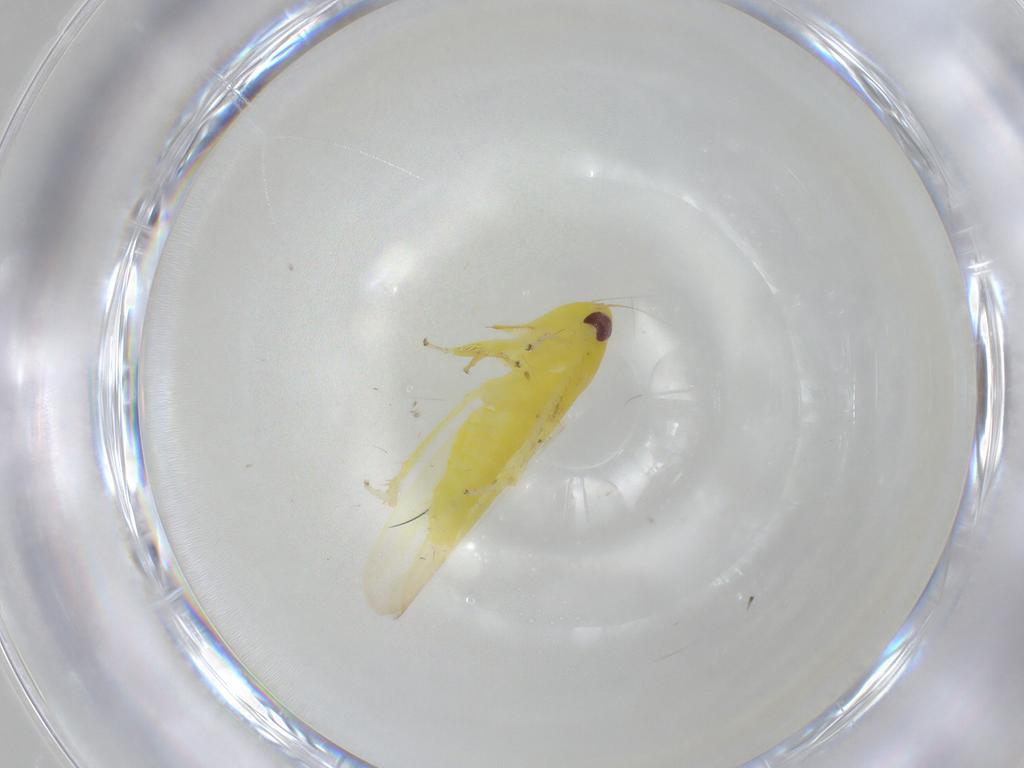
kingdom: Animalia
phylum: Arthropoda
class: Insecta
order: Hemiptera
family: Cicadellidae
